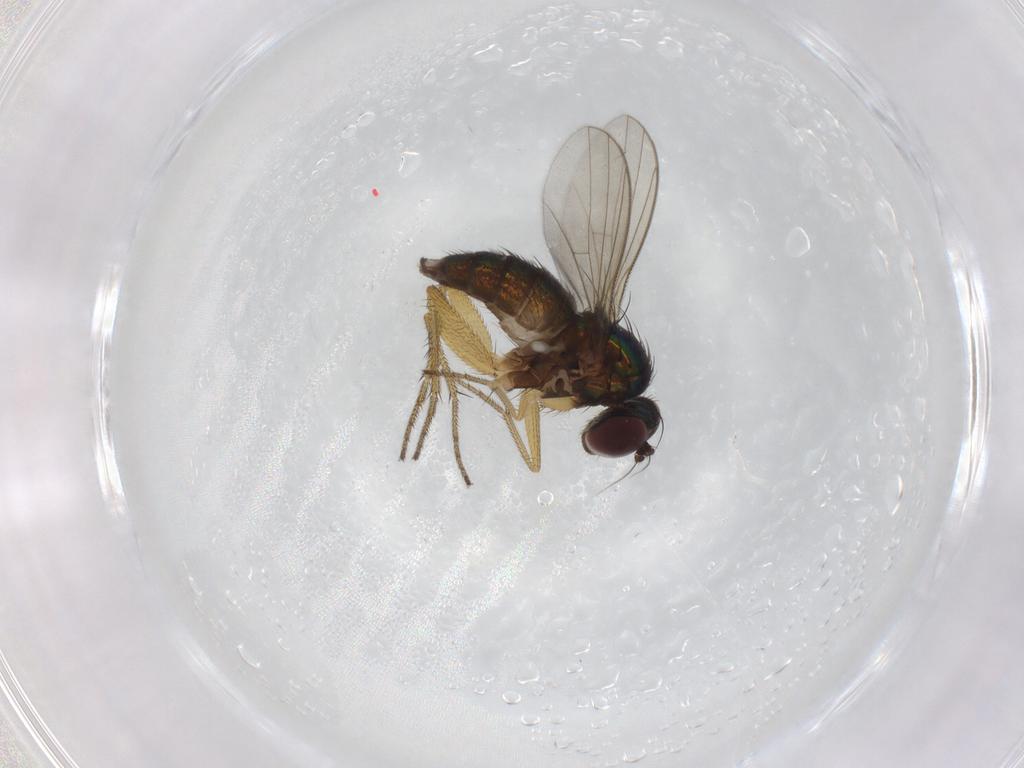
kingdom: Animalia
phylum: Arthropoda
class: Insecta
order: Diptera
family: Dolichopodidae
